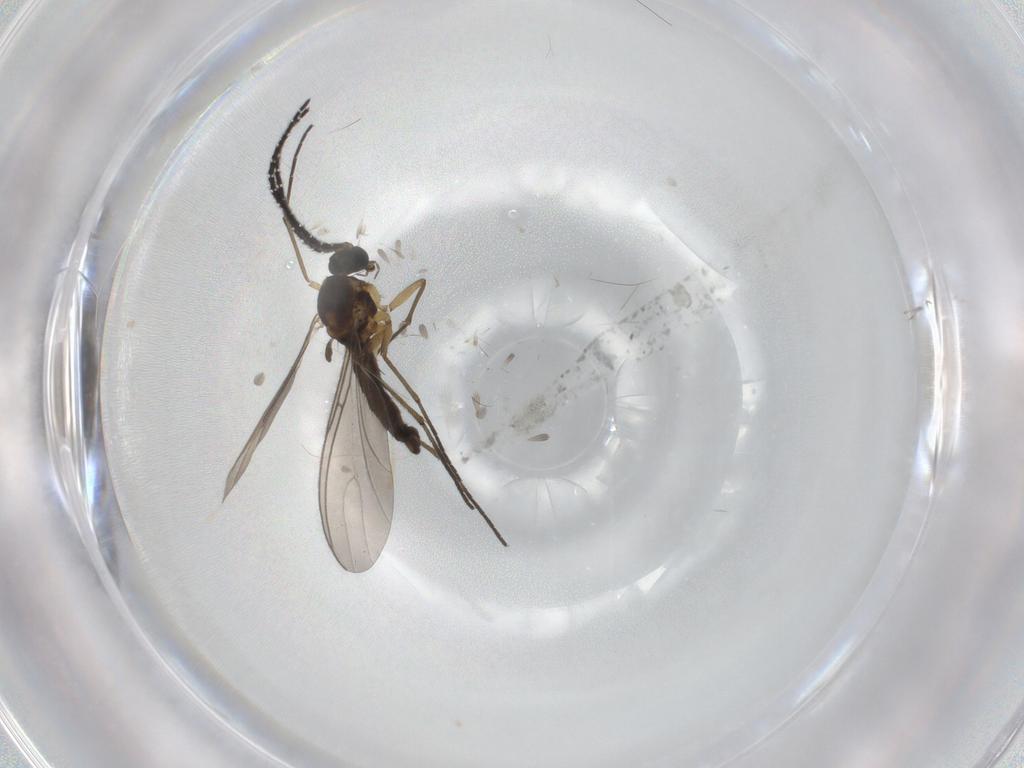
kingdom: Animalia
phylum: Arthropoda
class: Insecta
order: Diptera
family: Sciaridae
